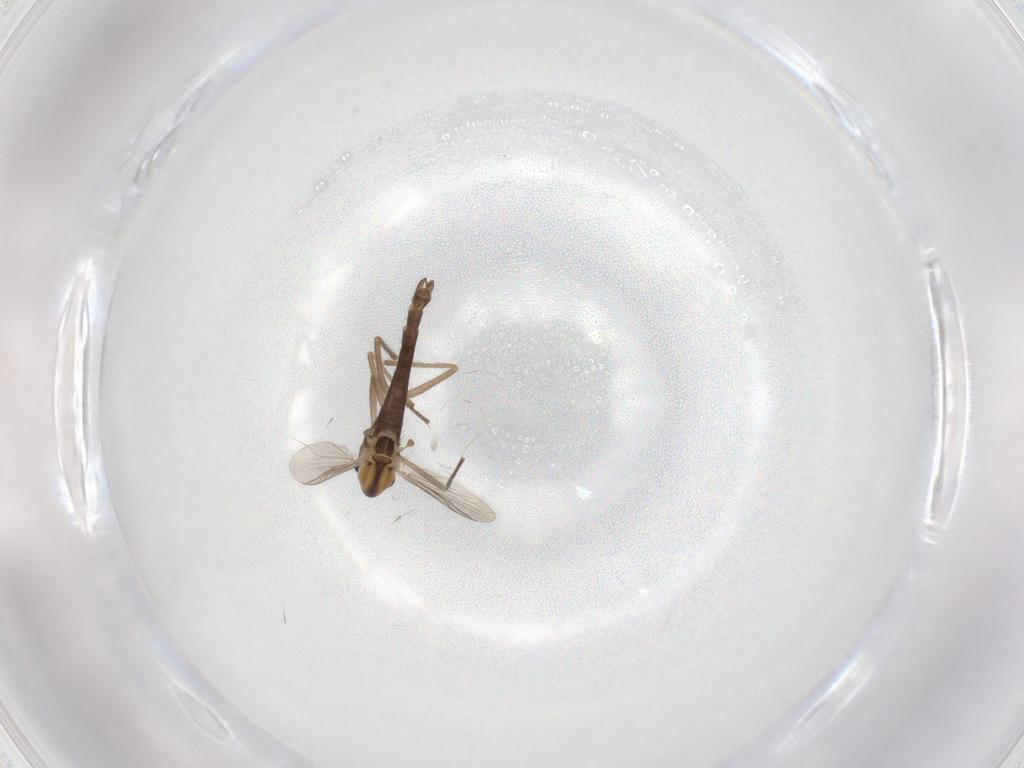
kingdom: Animalia
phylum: Arthropoda
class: Insecta
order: Diptera
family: Chironomidae
